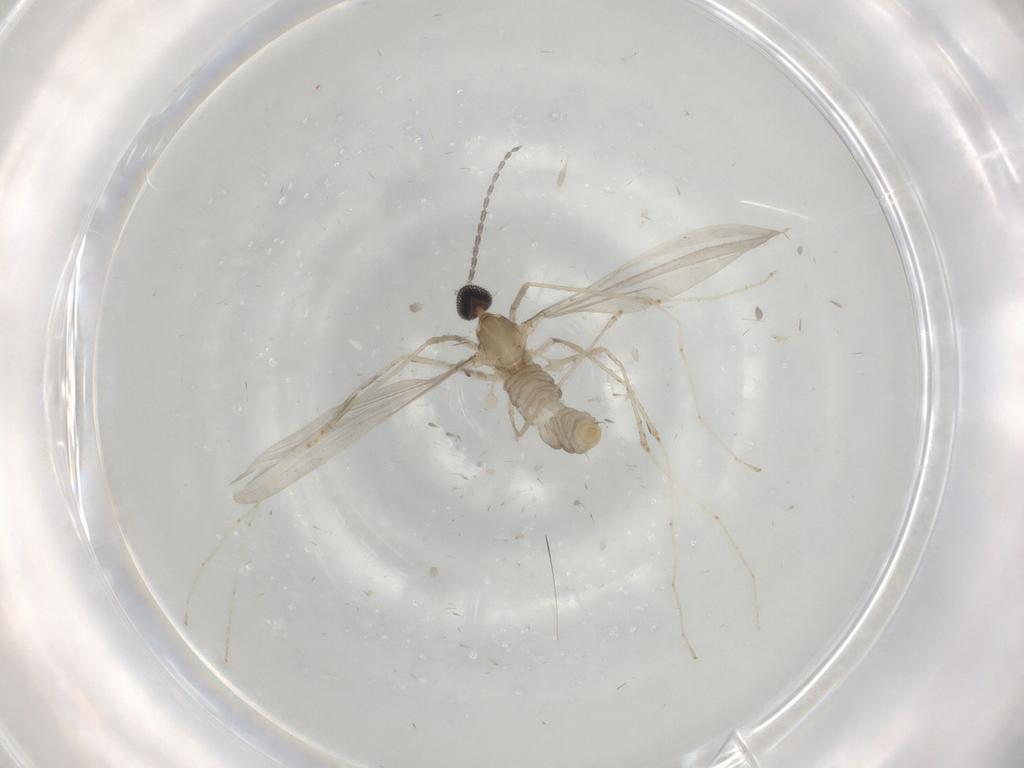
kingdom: Animalia
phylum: Arthropoda
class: Insecta
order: Diptera
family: Cecidomyiidae
